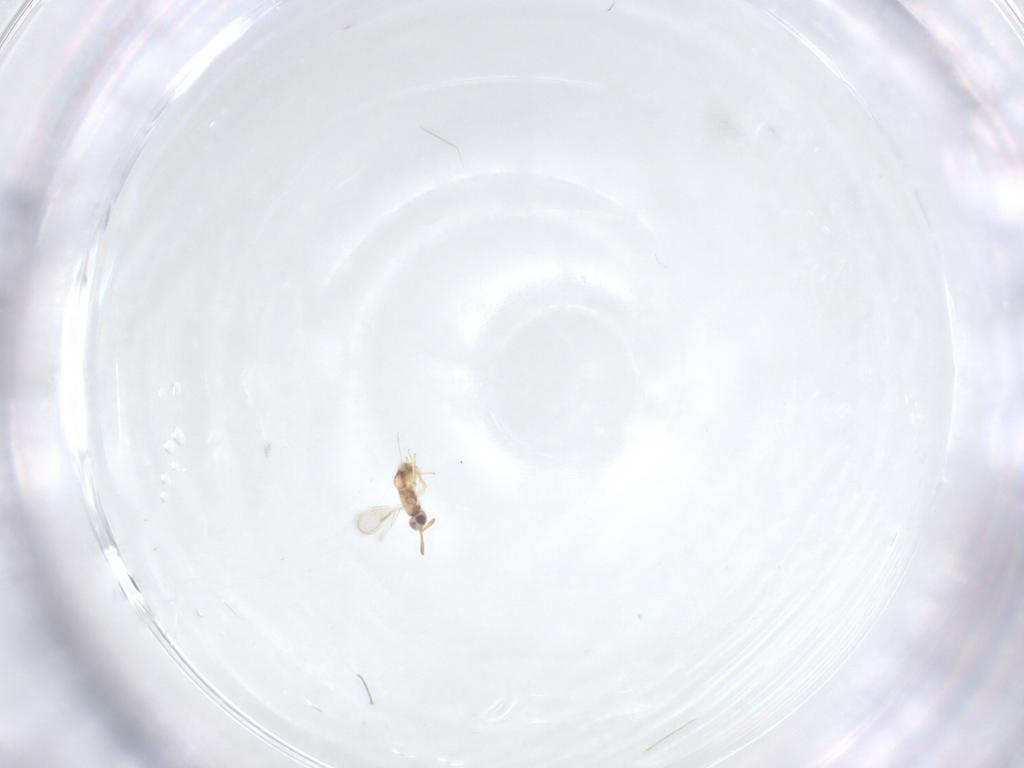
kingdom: Animalia
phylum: Arthropoda
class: Insecta
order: Hymenoptera
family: Aphelinidae
